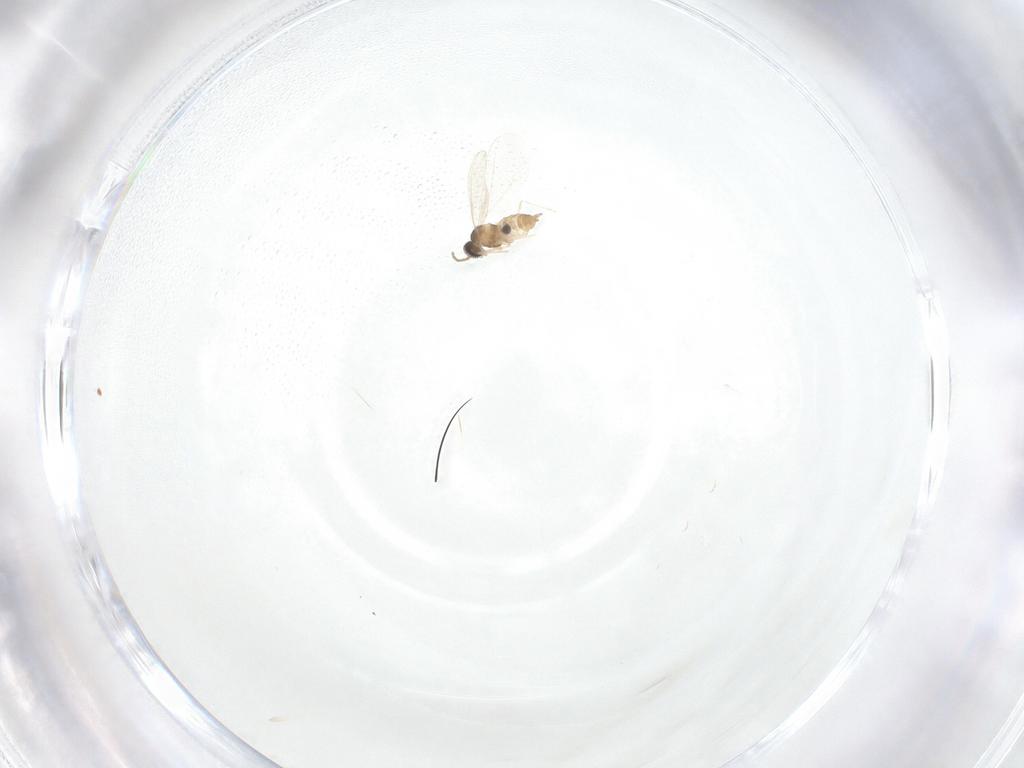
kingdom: Animalia
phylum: Arthropoda
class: Insecta
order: Diptera
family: Cecidomyiidae
